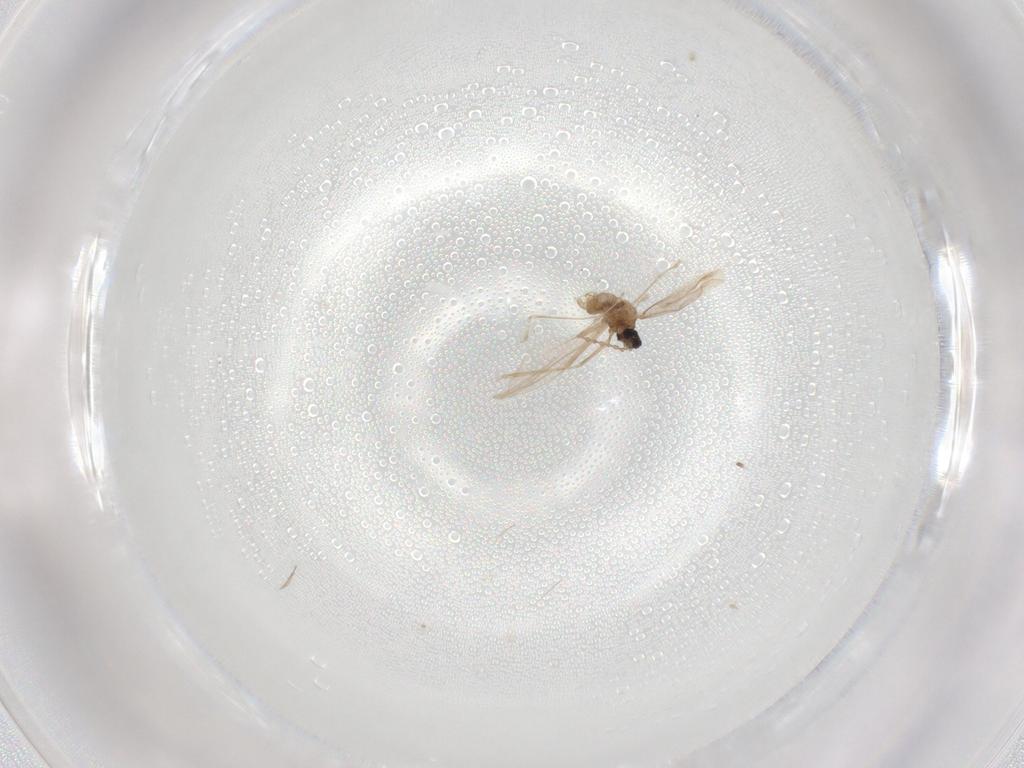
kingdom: Animalia
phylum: Arthropoda
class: Insecta
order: Diptera
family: Cecidomyiidae
